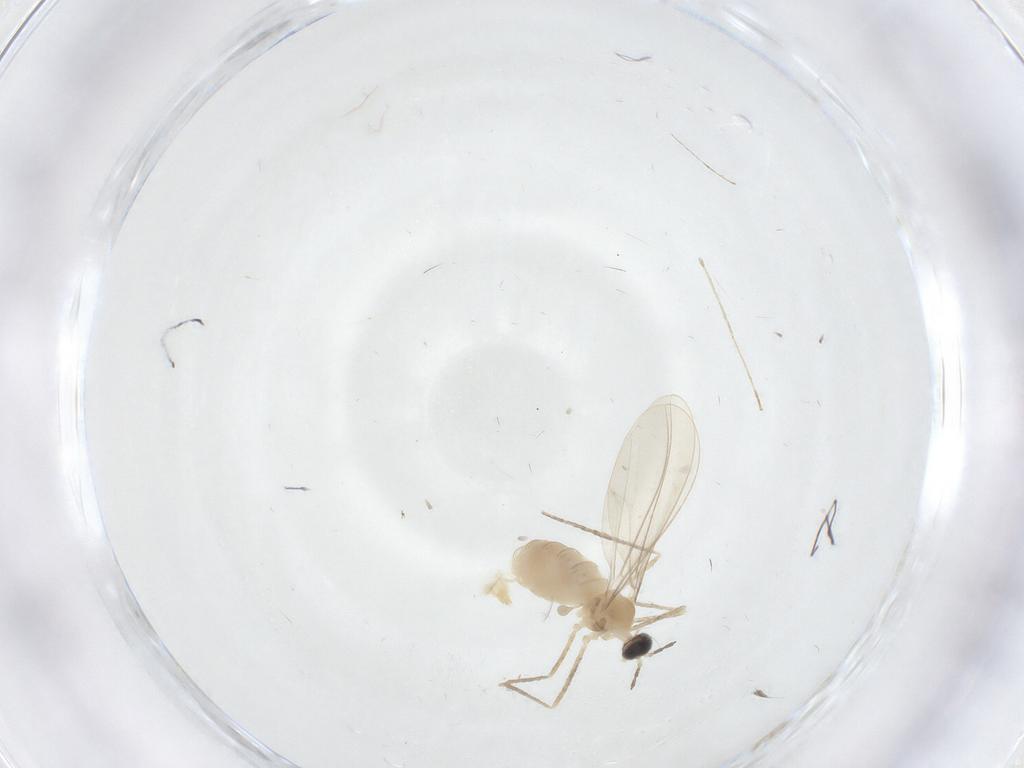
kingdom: Animalia
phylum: Arthropoda
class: Insecta
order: Diptera
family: Cecidomyiidae
